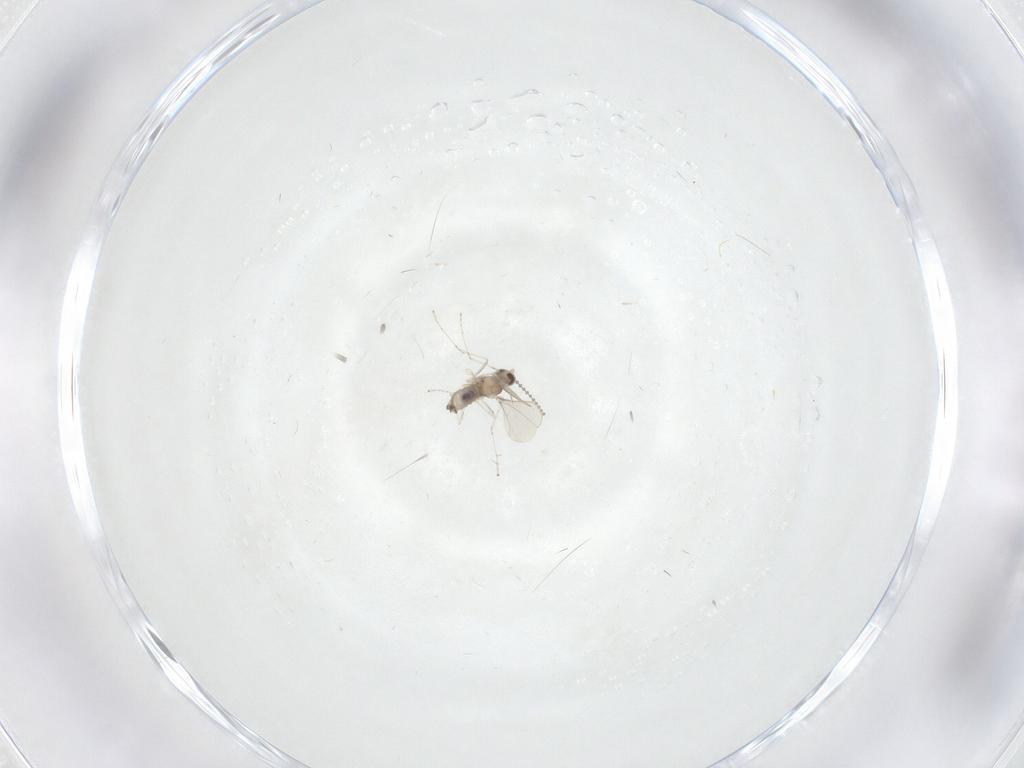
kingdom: Animalia
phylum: Arthropoda
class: Insecta
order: Diptera
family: Cecidomyiidae
